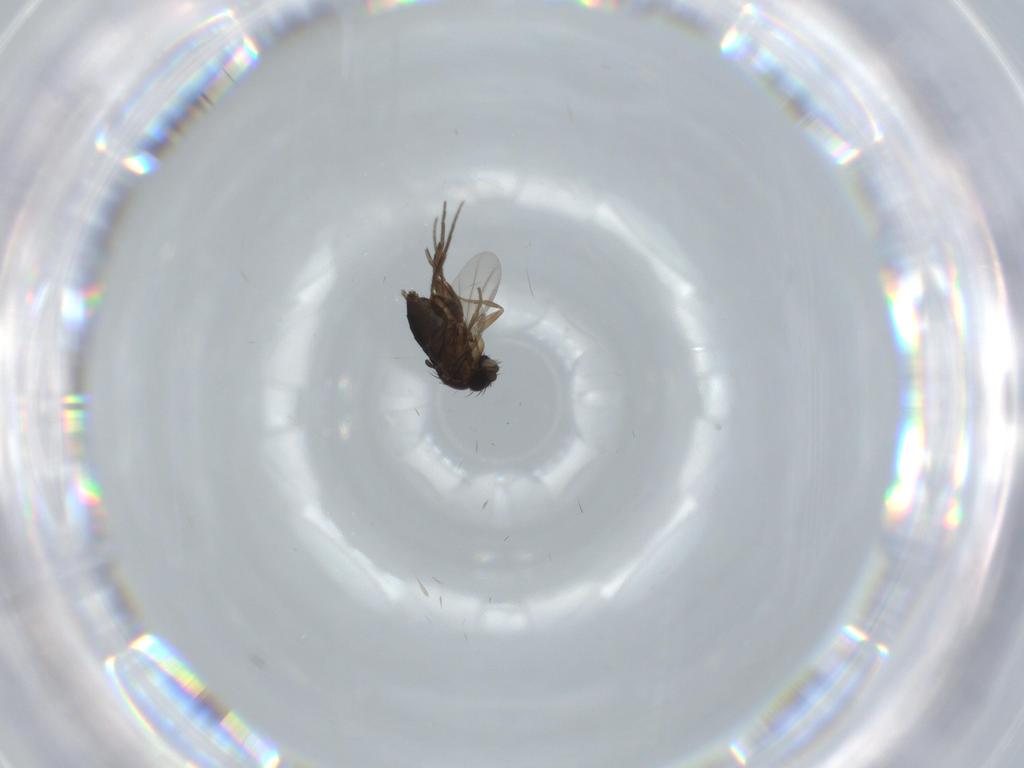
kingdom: Animalia
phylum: Arthropoda
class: Insecta
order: Diptera
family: Phoridae
